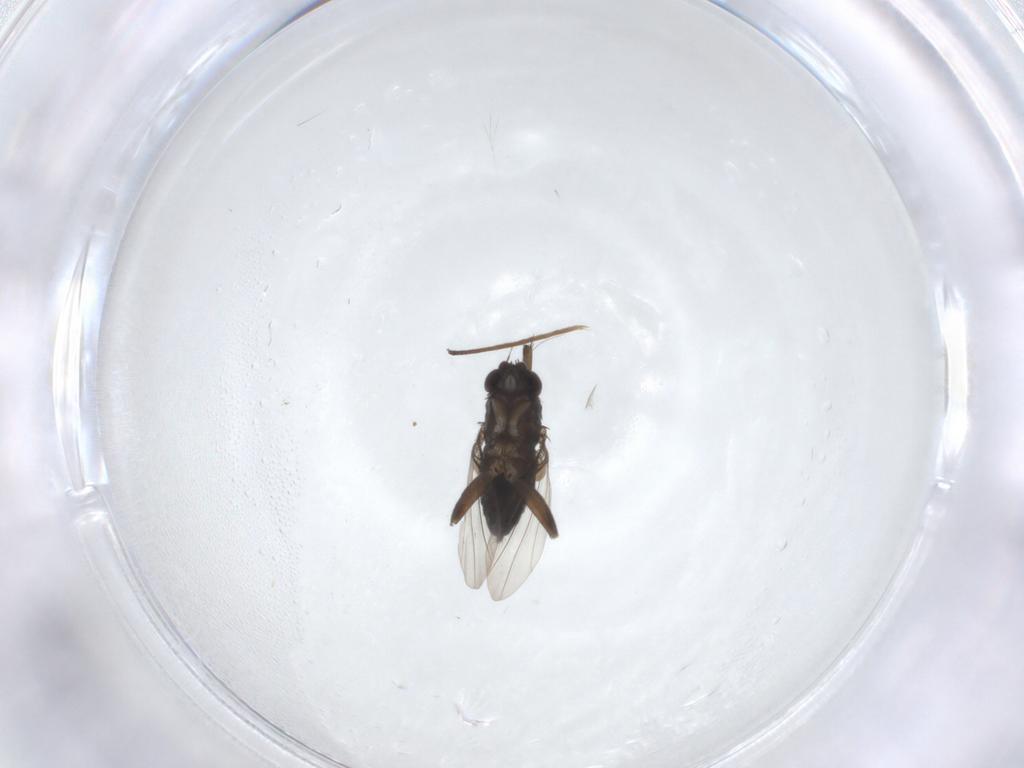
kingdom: Animalia
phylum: Arthropoda
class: Insecta
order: Diptera
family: Phoridae
